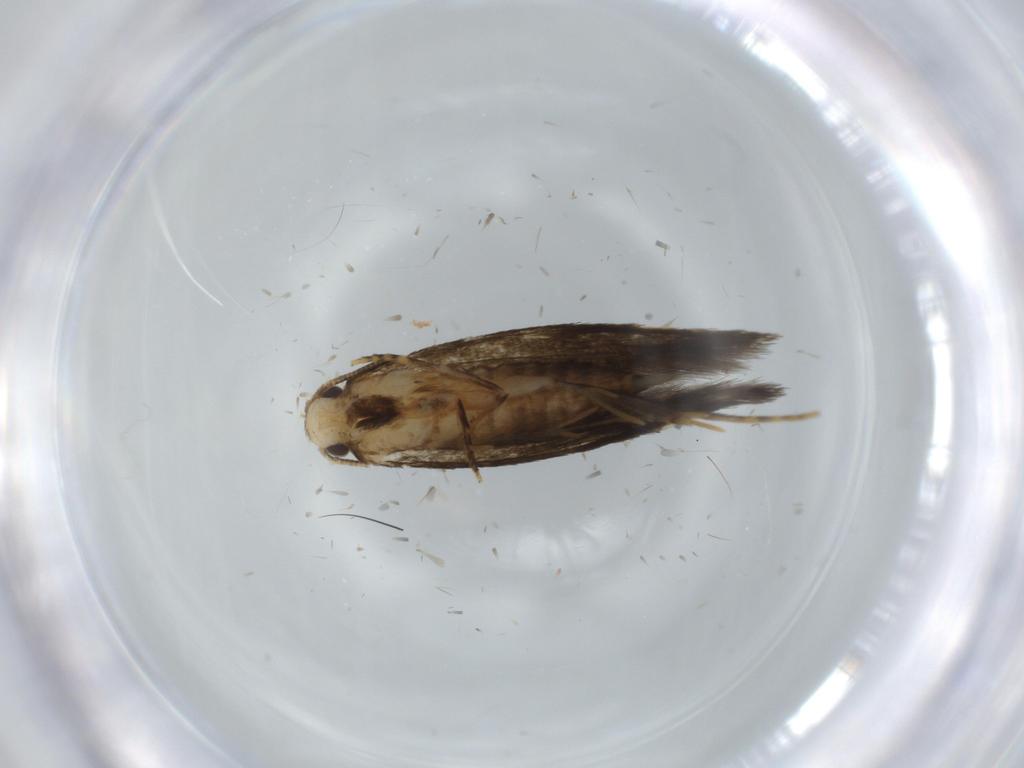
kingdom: Animalia
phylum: Arthropoda
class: Insecta
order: Lepidoptera
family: Tineidae
